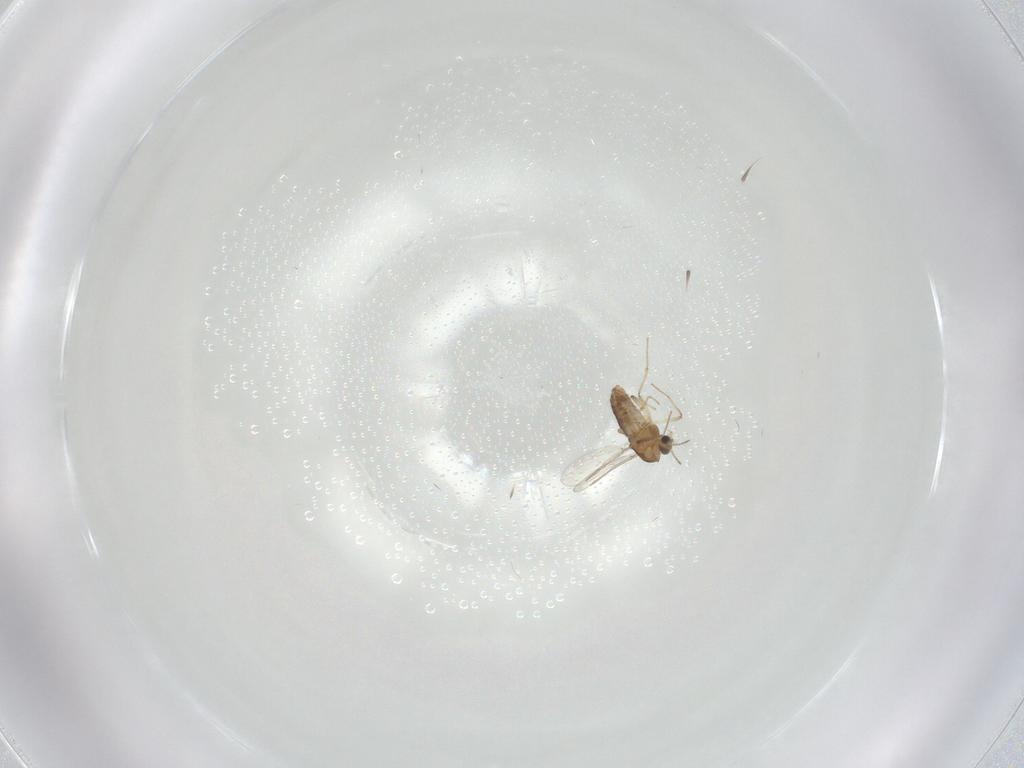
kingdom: Animalia
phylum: Arthropoda
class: Insecta
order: Diptera
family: Chironomidae
